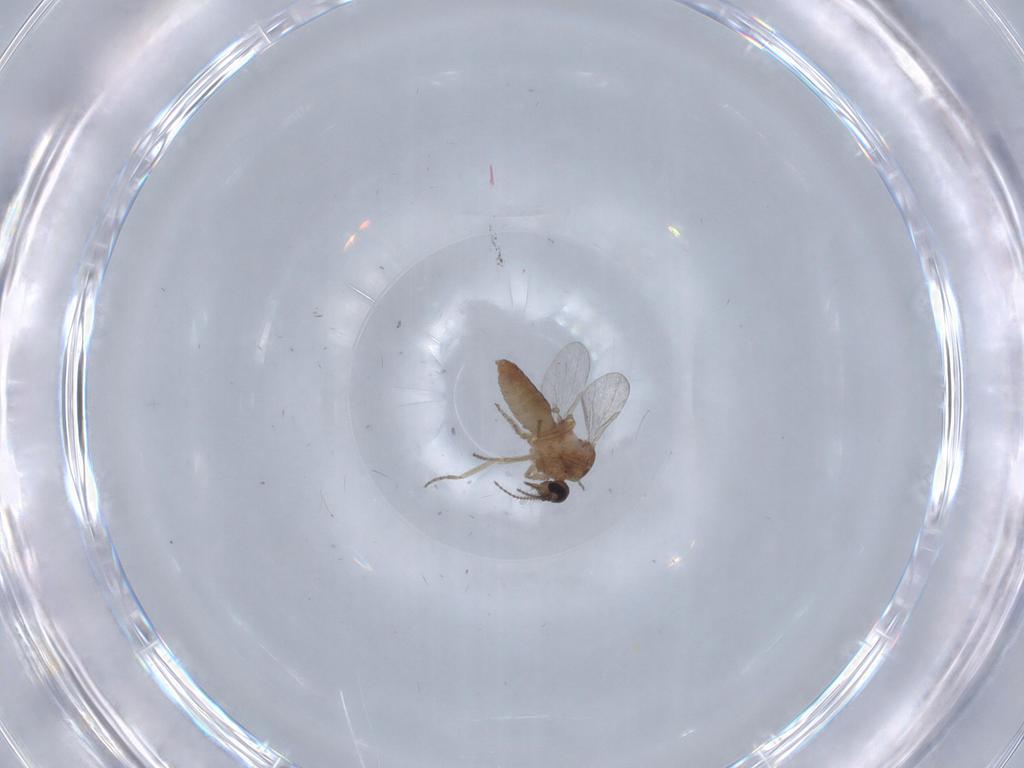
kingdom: Animalia
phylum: Arthropoda
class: Insecta
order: Diptera
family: Ceratopogonidae
